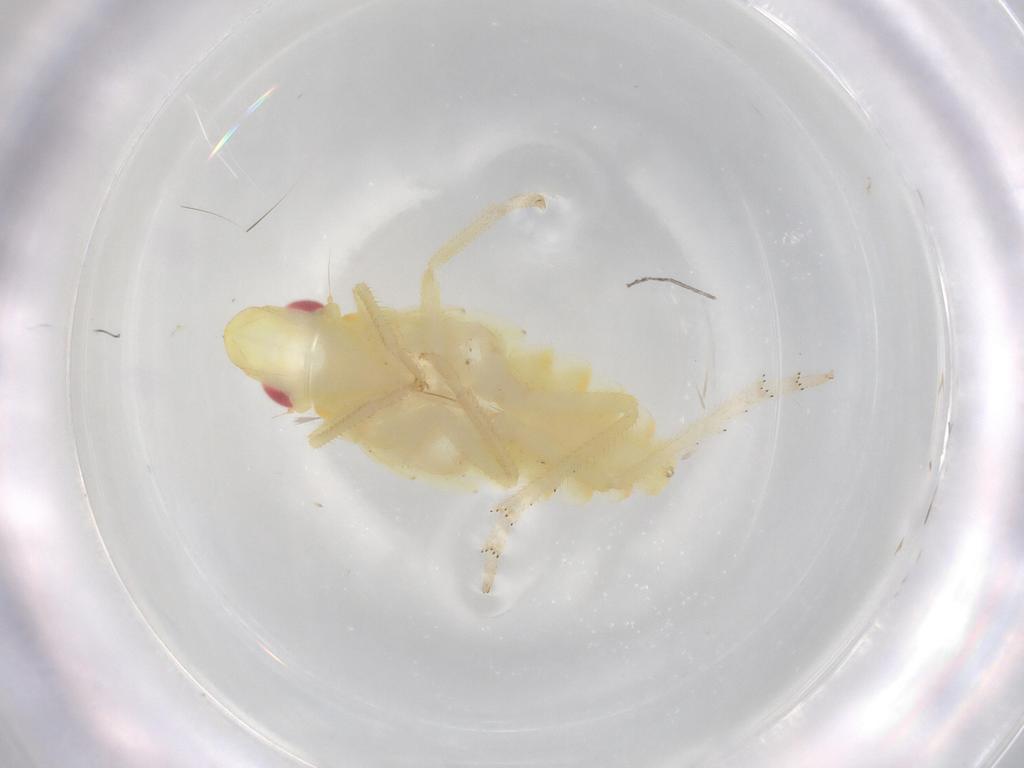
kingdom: Animalia
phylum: Arthropoda
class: Insecta
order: Hemiptera
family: Tropiduchidae
